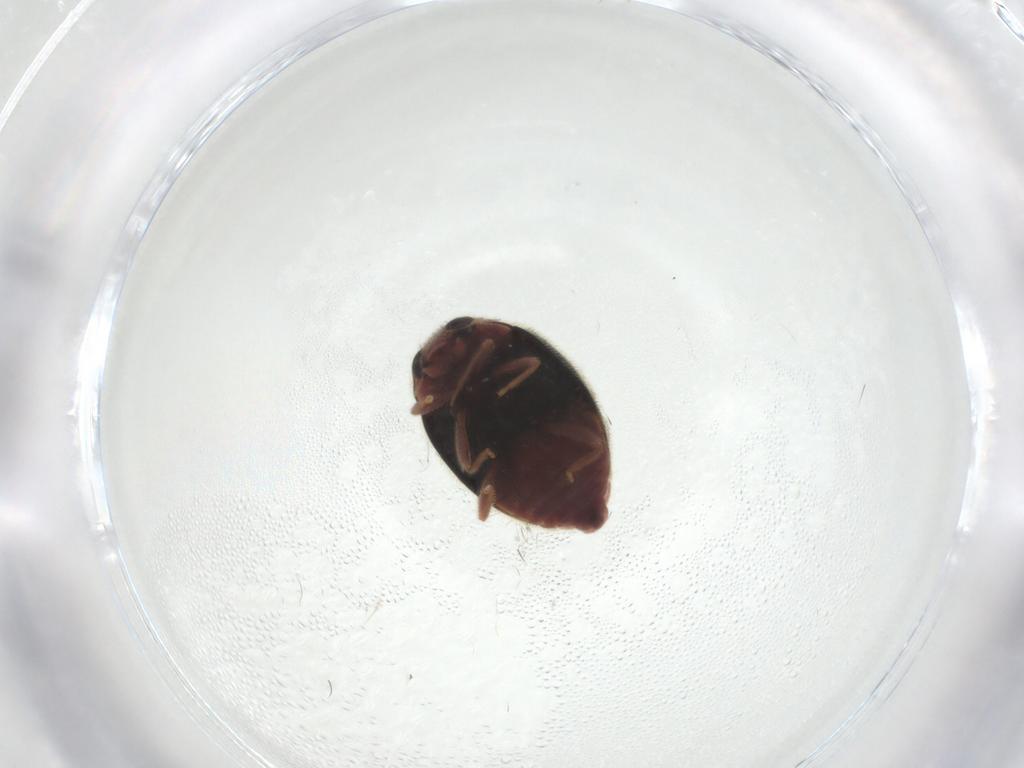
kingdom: Animalia
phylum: Arthropoda
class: Insecta
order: Coleoptera
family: Coccinellidae
